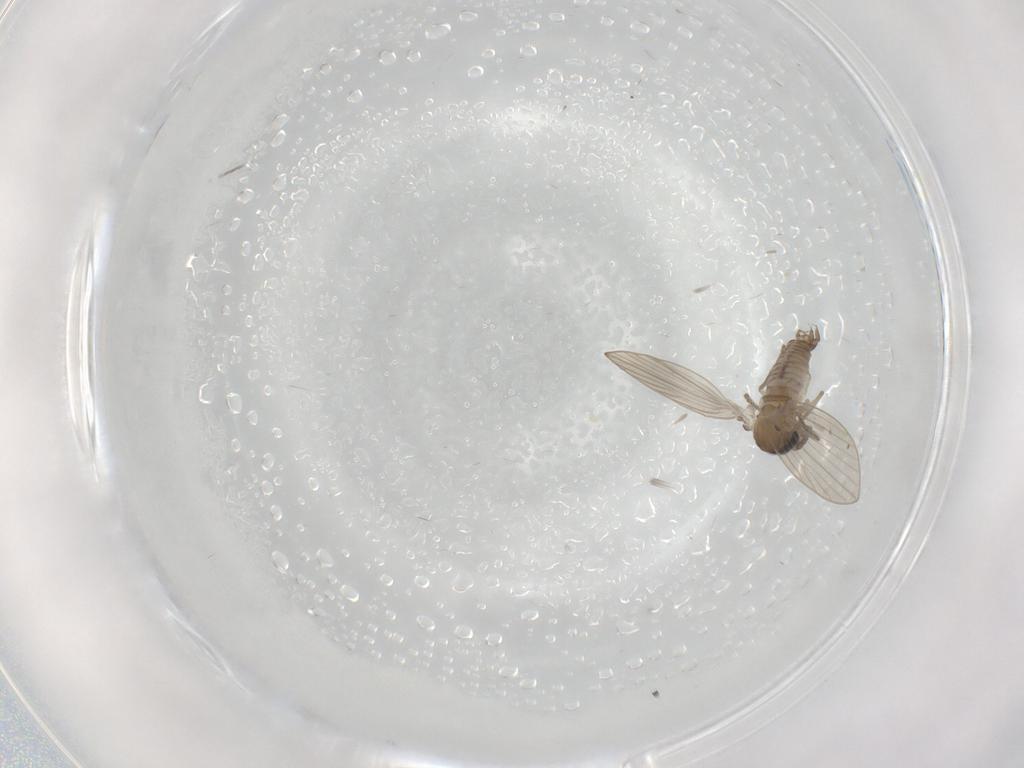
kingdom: Animalia
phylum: Arthropoda
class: Insecta
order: Diptera
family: Chironomidae
